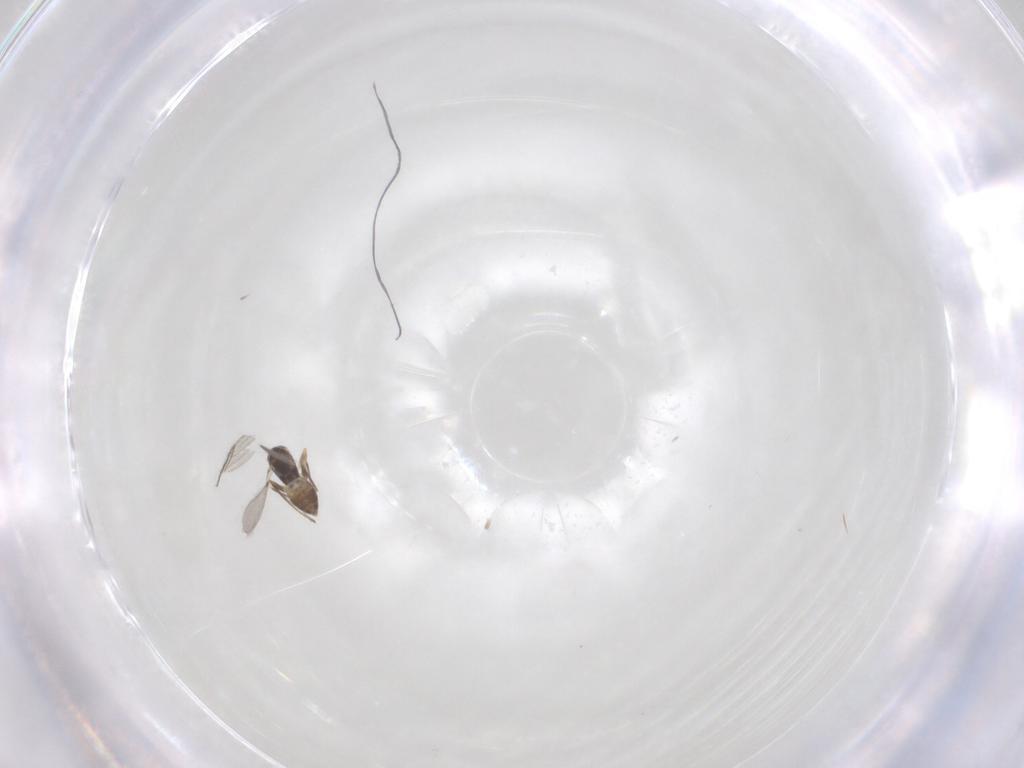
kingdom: Animalia
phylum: Arthropoda
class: Insecta
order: Hymenoptera
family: Mymaridae
